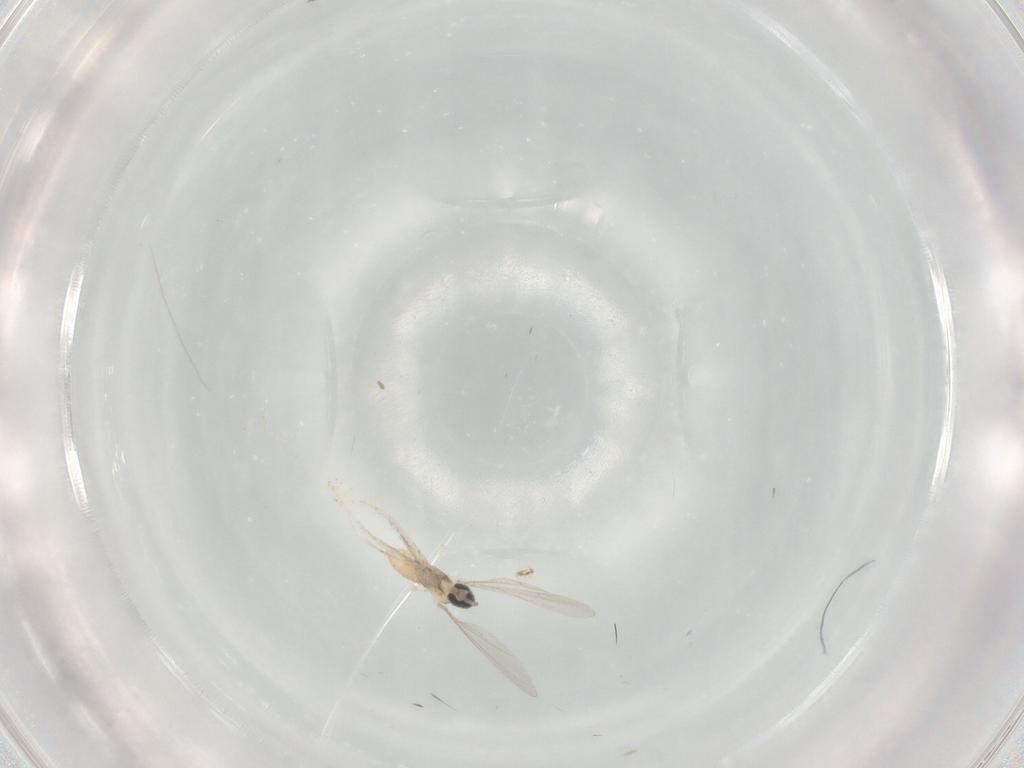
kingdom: Animalia
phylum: Arthropoda
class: Insecta
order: Diptera
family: Cecidomyiidae
